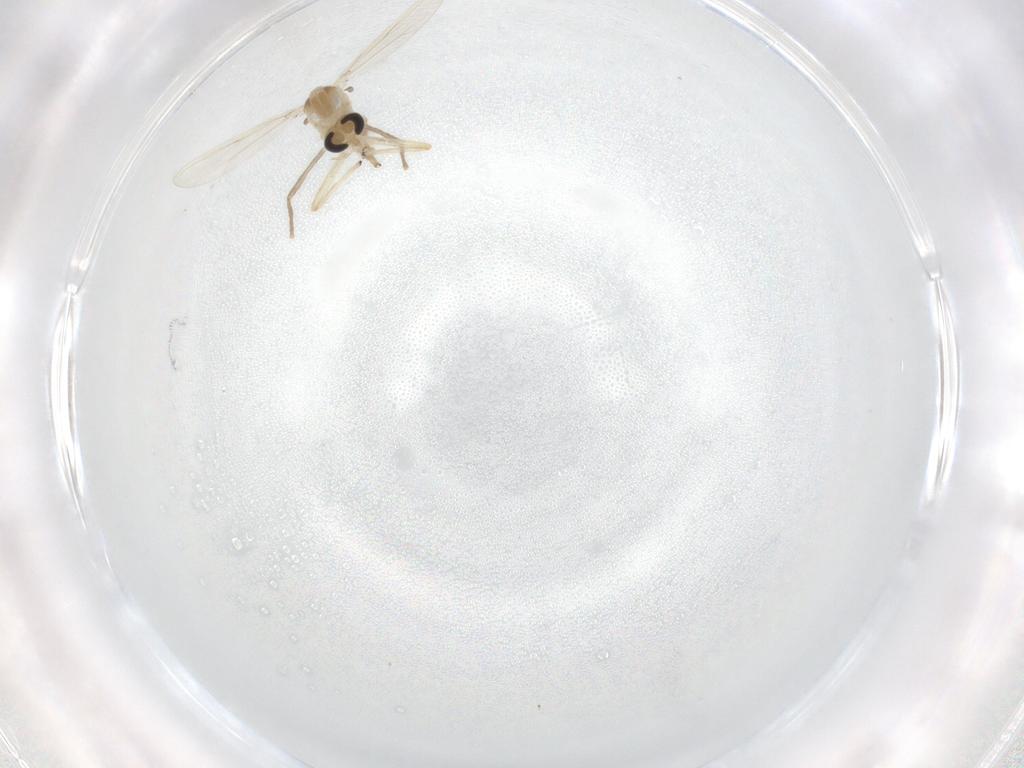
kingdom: Animalia
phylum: Arthropoda
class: Insecta
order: Diptera
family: Chironomidae
